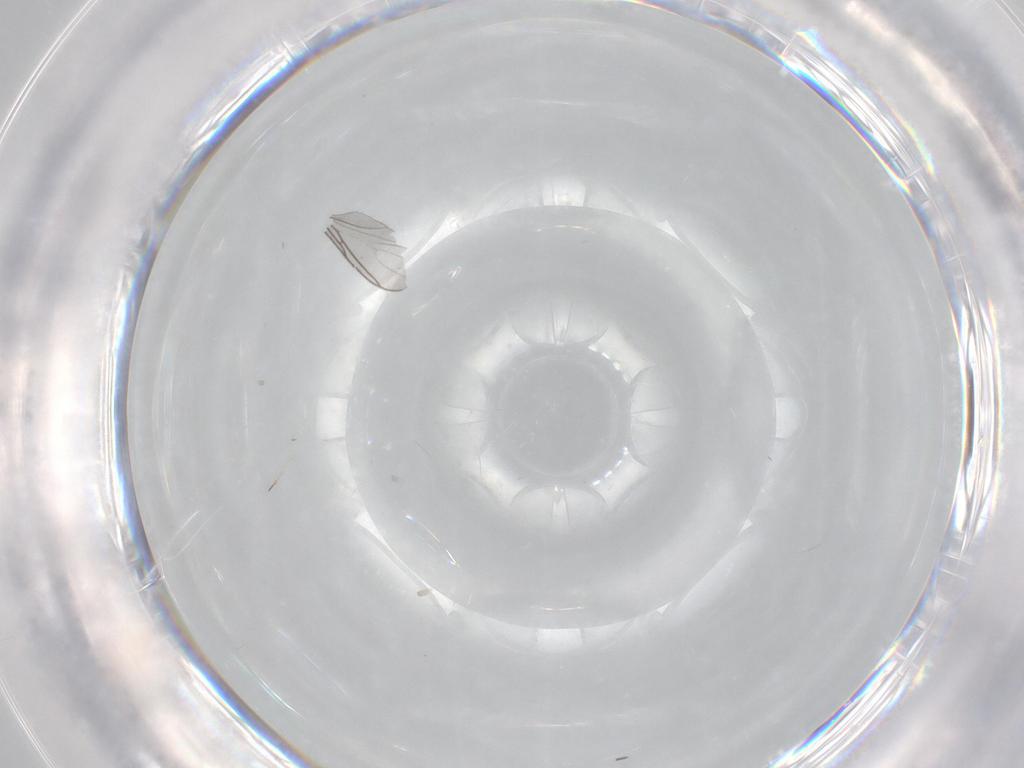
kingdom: Animalia
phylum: Arthropoda
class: Insecta
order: Diptera
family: Cecidomyiidae
